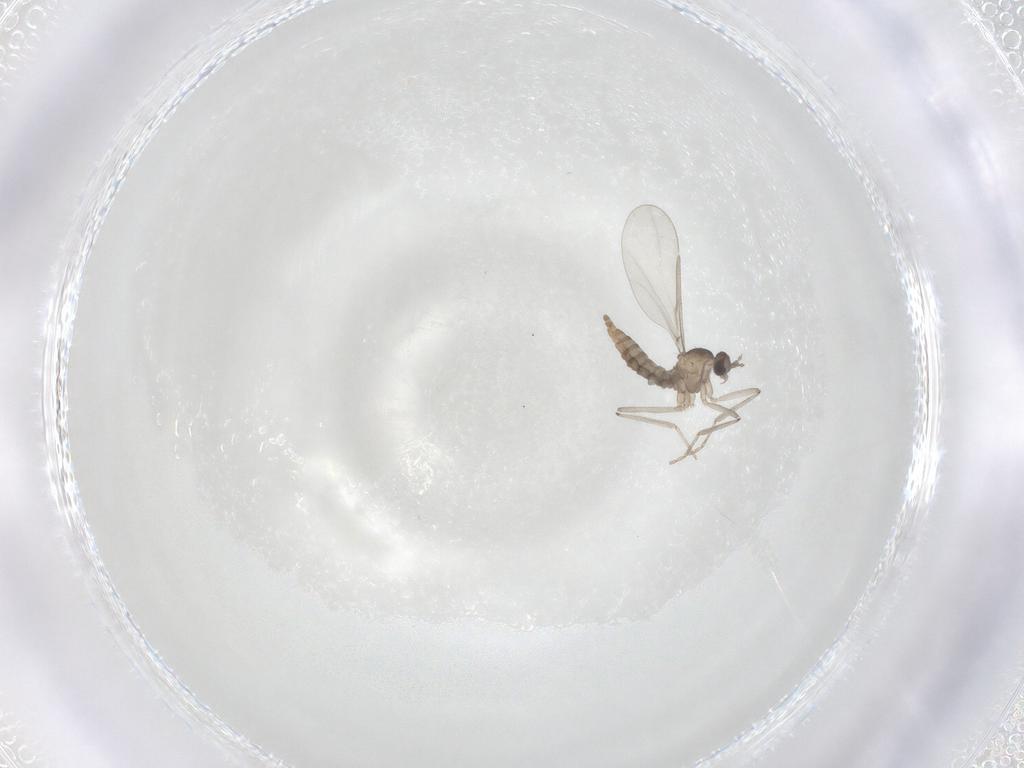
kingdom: Animalia
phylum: Arthropoda
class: Insecta
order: Diptera
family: Cecidomyiidae
